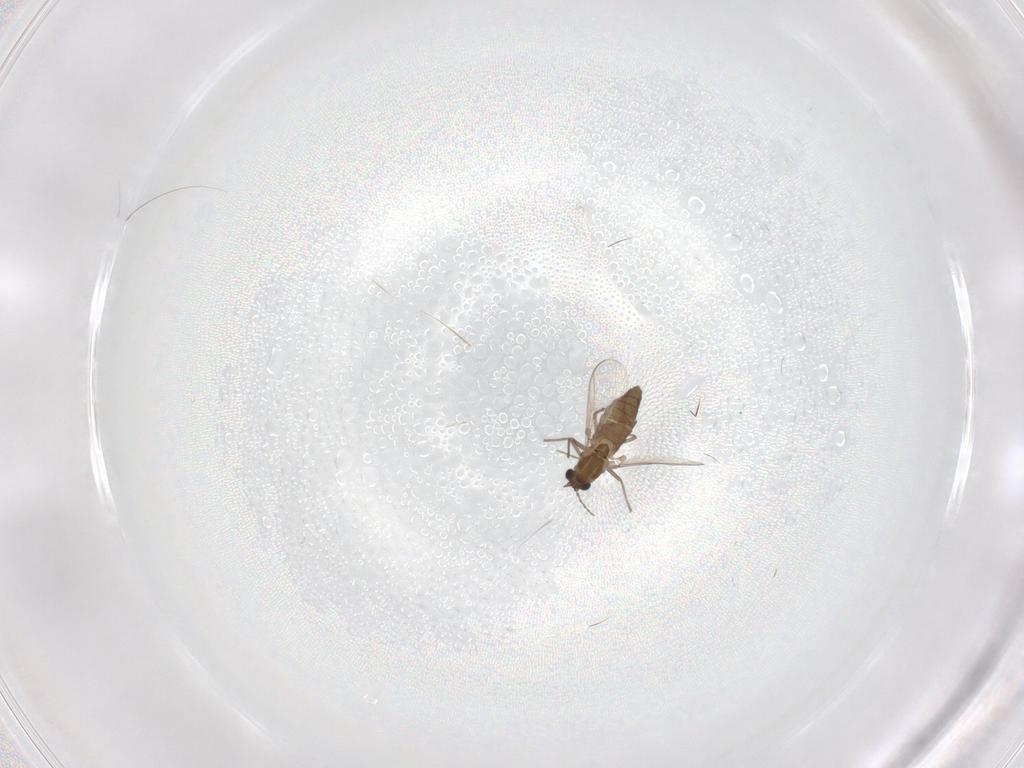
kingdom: Animalia
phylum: Arthropoda
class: Insecta
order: Diptera
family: Chironomidae
